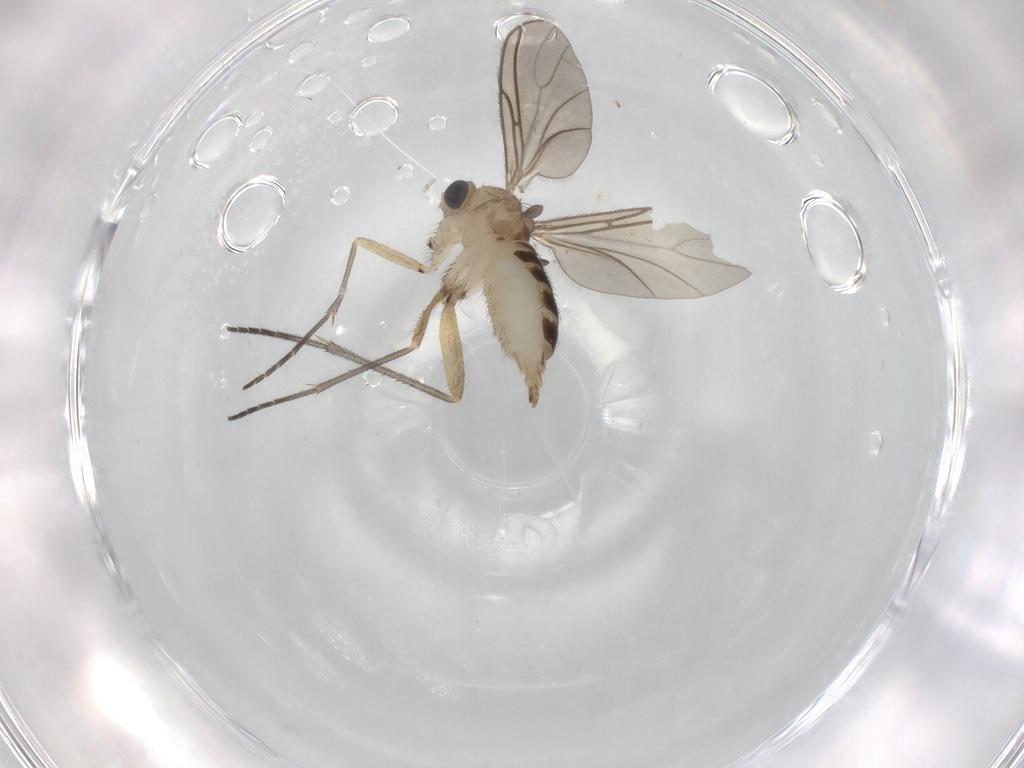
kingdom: Animalia
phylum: Arthropoda
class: Insecta
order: Diptera
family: Sciaridae
